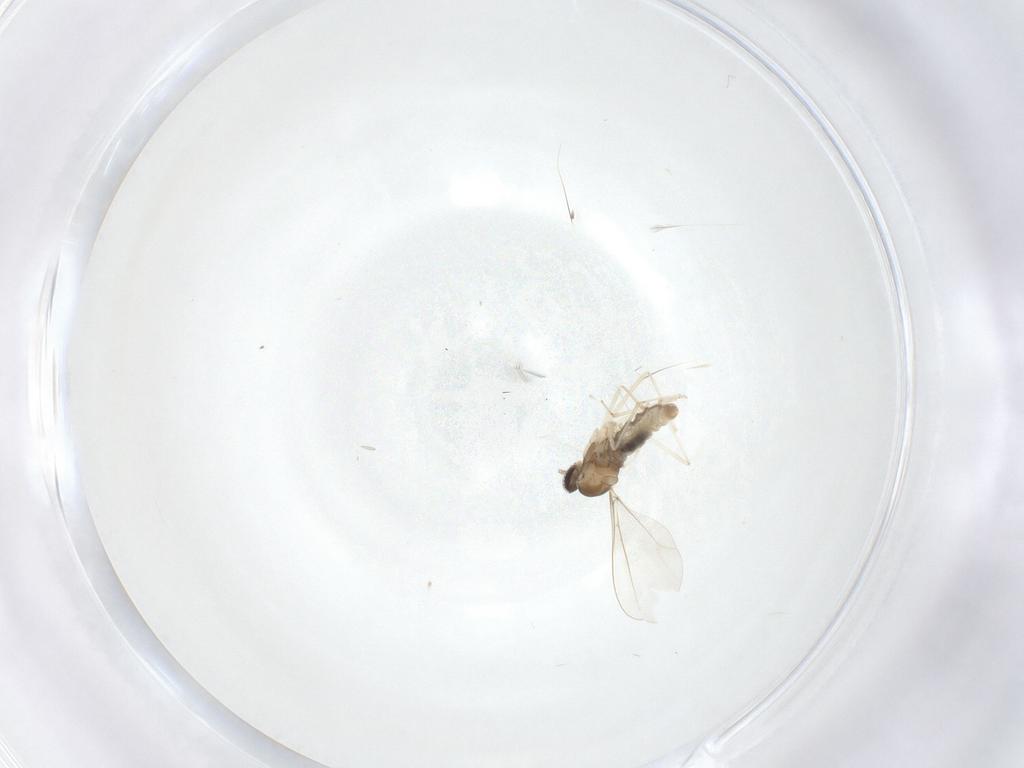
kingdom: Animalia
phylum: Arthropoda
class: Insecta
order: Diptera
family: Cecidomyiidae
